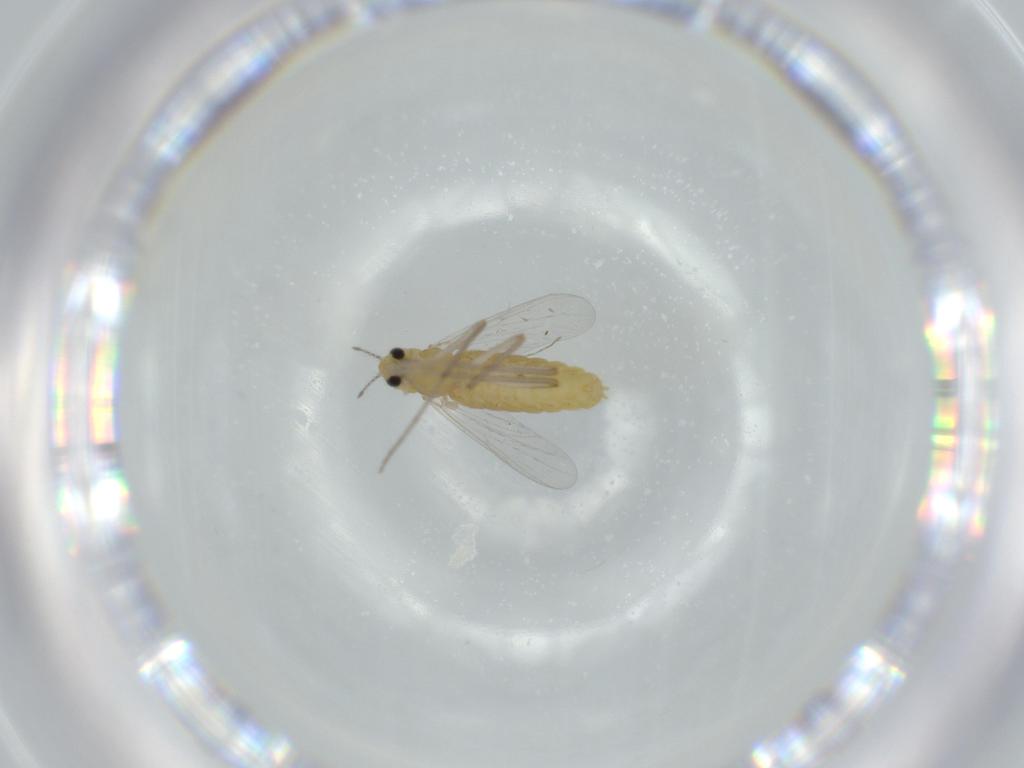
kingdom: Animalia
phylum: Arthropoda
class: Insecta
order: Diptera
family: Chironomidae
